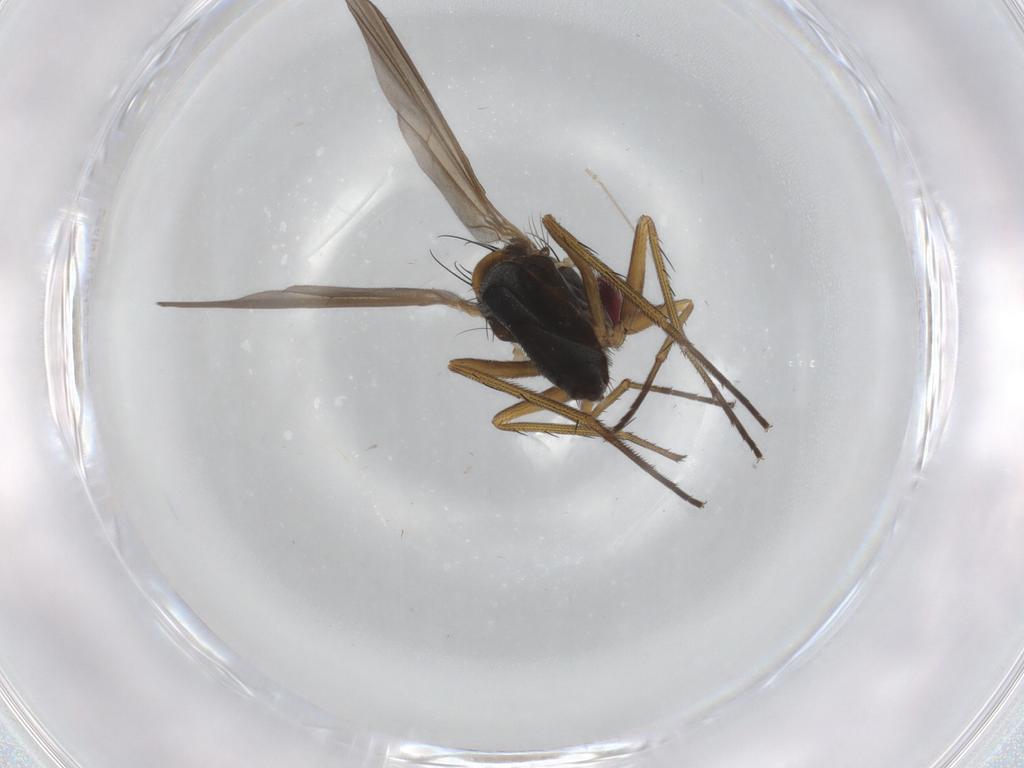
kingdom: Animalia
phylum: Arthropoda
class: Insecta
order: Diptera
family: Dolichopodidae
